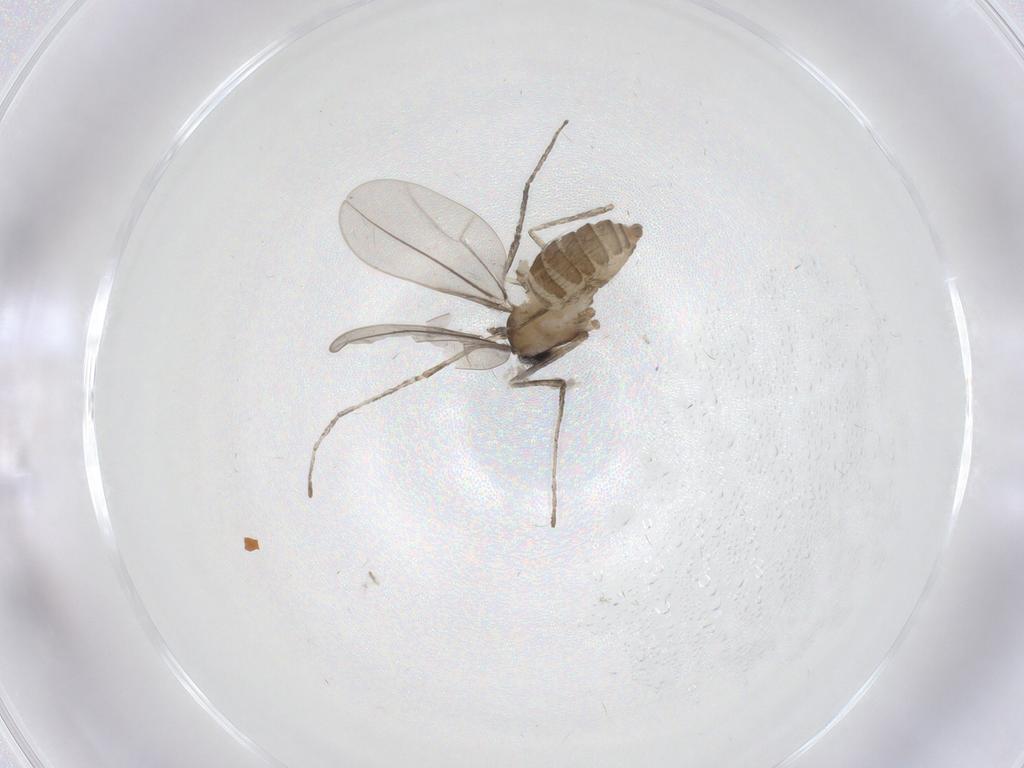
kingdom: Animalia
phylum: Arthropoda
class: Insecta
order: Diptera
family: Cecidomyiidae
